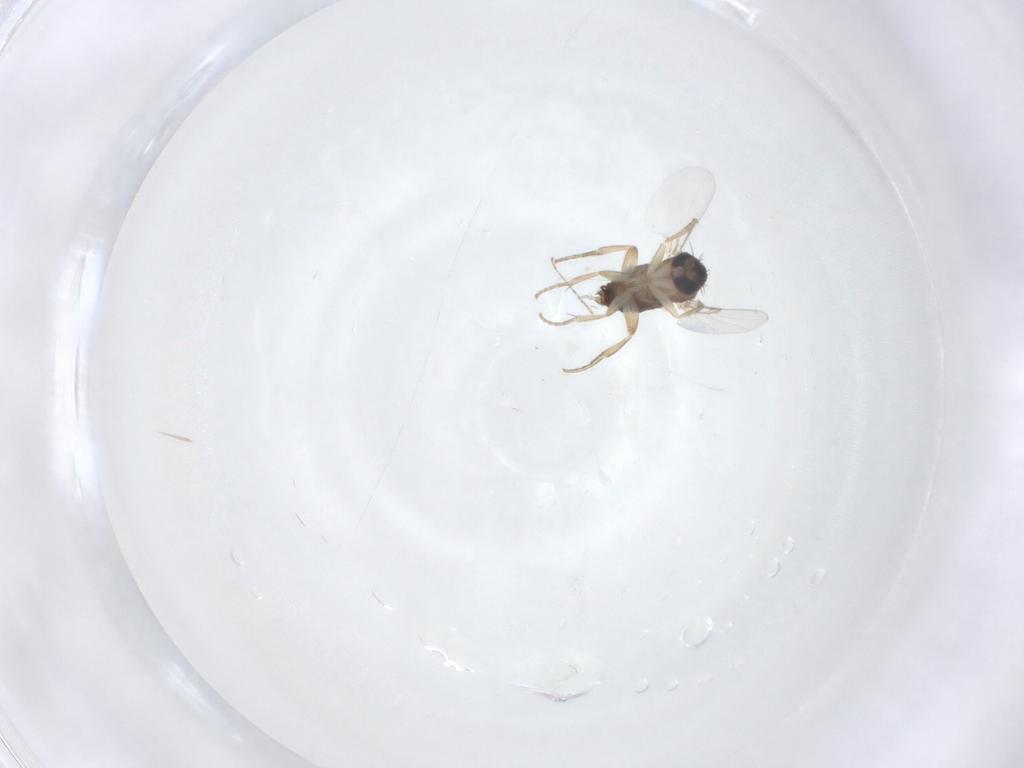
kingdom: Animalia
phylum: Arthropoda
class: Insecta
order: Diptera
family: Phoridae
